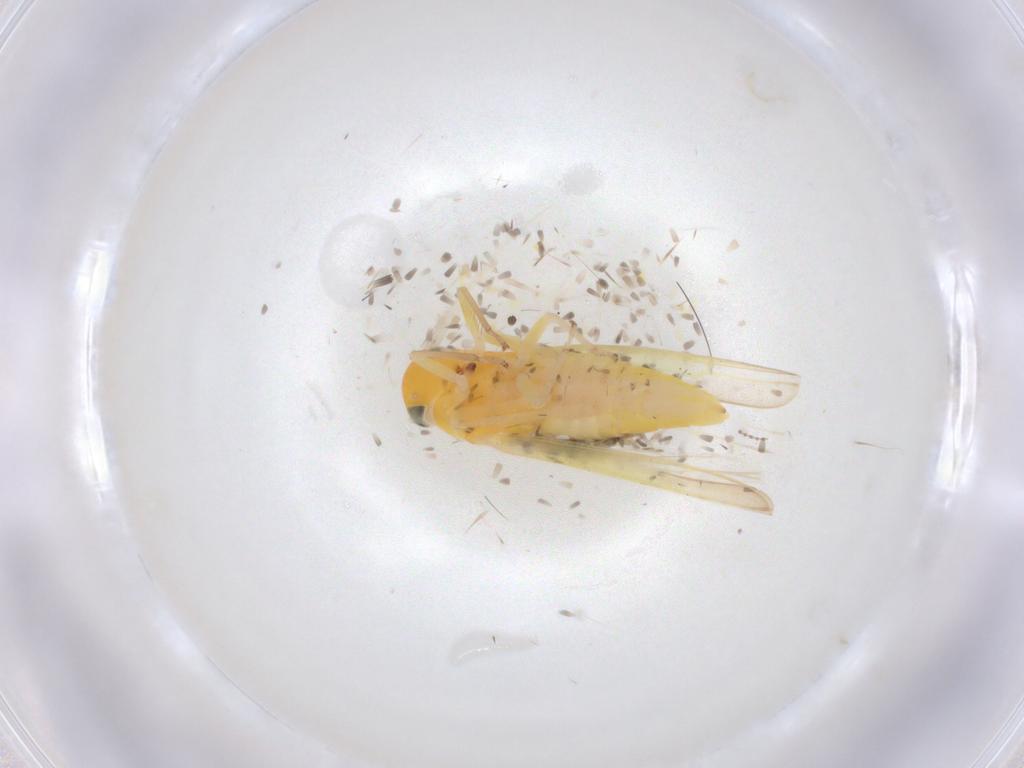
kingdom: Animalia
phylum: Arthropoda
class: Insecta
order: Hemiptera
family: Cicadellidae
